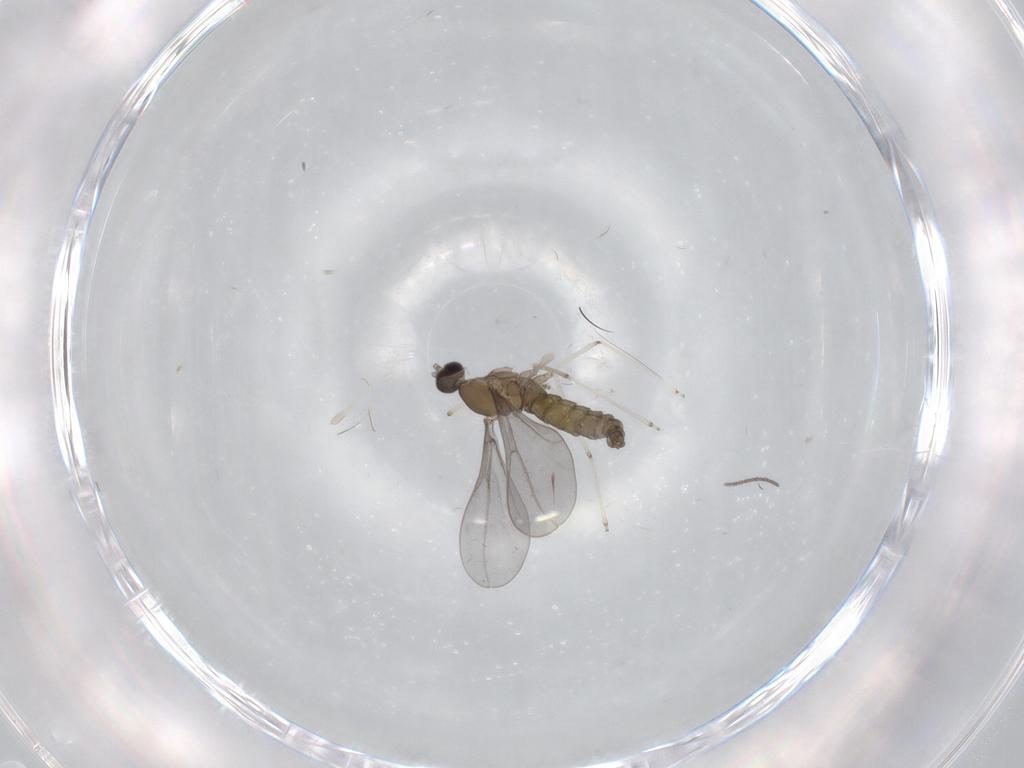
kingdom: Animalia
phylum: Arthropoda
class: Insecta
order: Diptera
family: Cecidomyiidae
